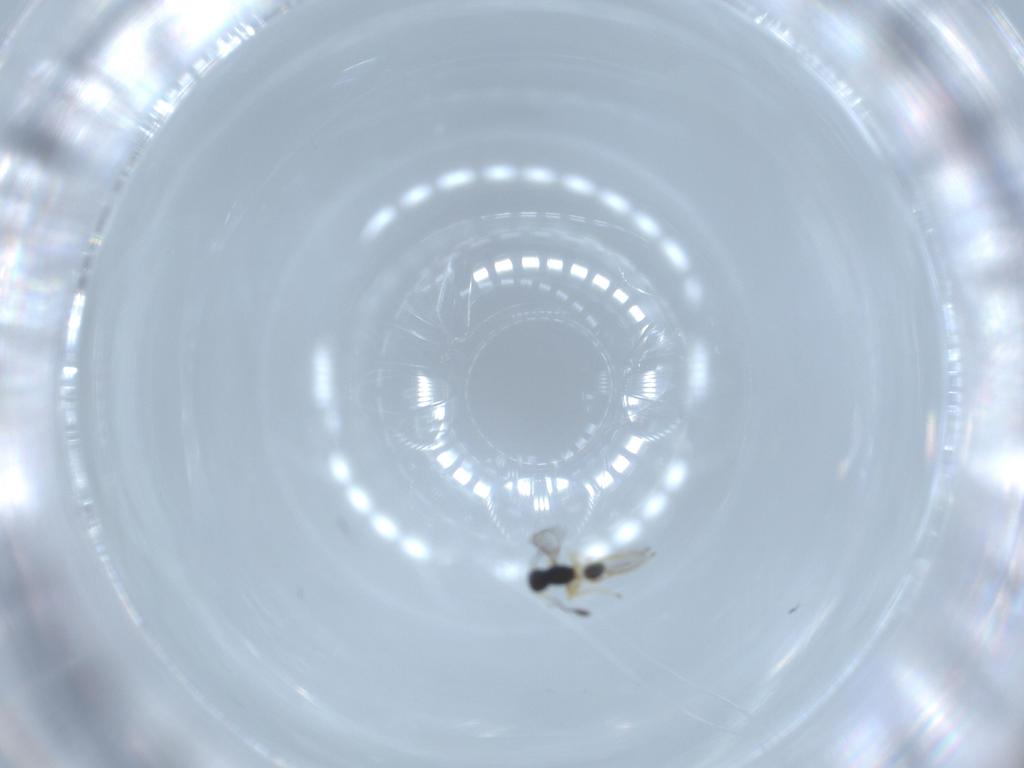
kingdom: Animalia
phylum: Arthropoda
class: Insecta
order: Hymenoptera
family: Mymaridae
